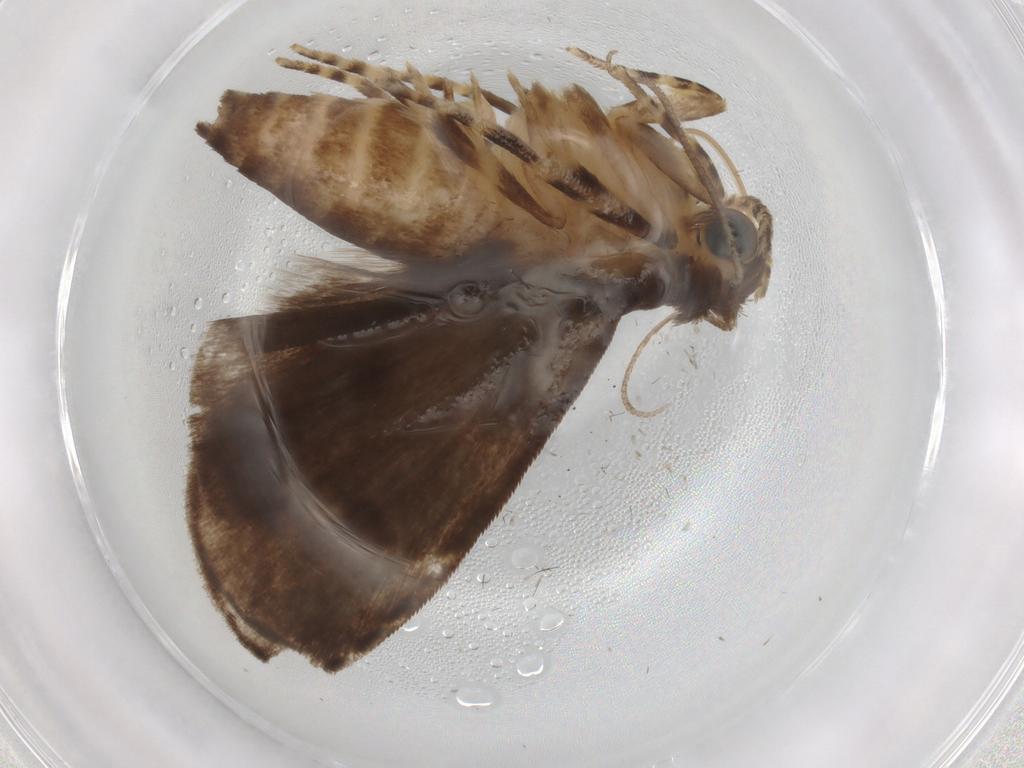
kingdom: Animalia
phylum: Arthropoda
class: Insecta
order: Lepidoptera
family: Immidae
